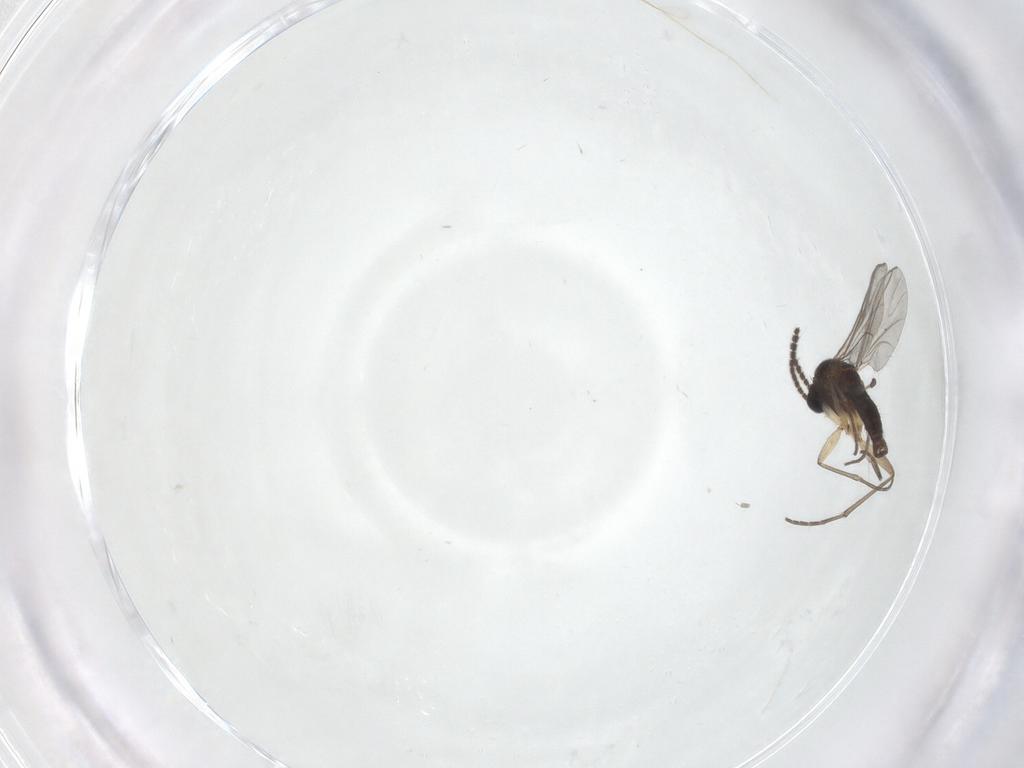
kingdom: Animalia
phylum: Arthropoda
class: Insecta
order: Diptera
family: Sciaridae
